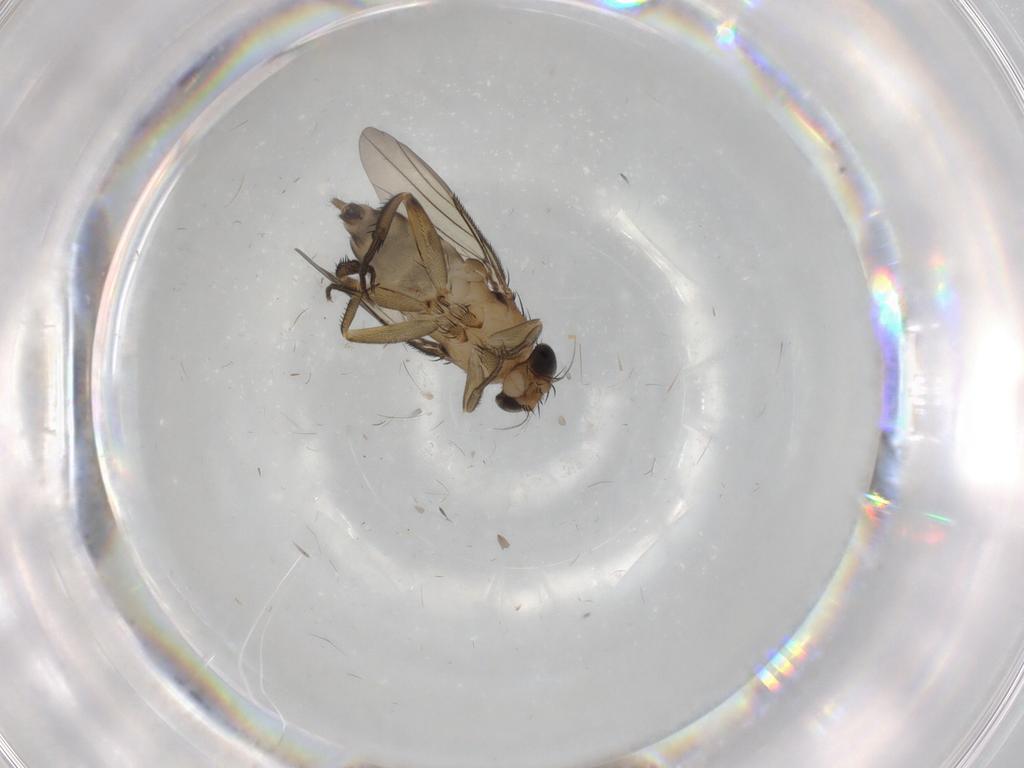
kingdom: Animalia
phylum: Arthropoda
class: Insecta
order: Diptera
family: Phoridae
